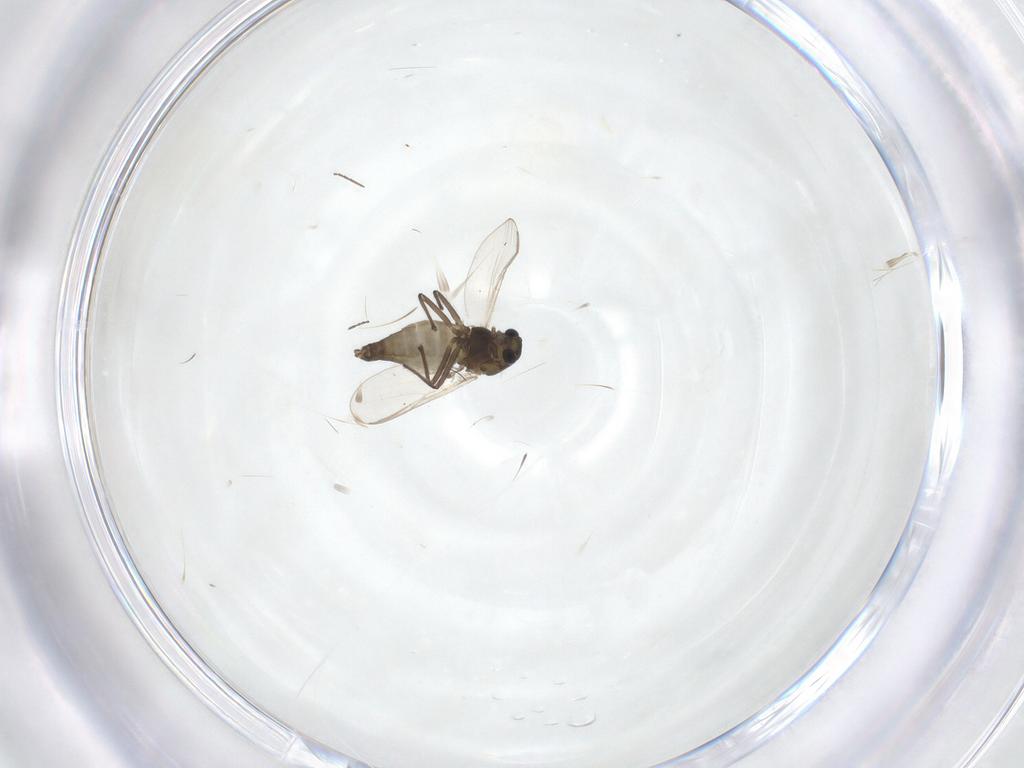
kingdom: Animalia
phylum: Arthropoda
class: Insecta
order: Diptera
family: Chironomidae
